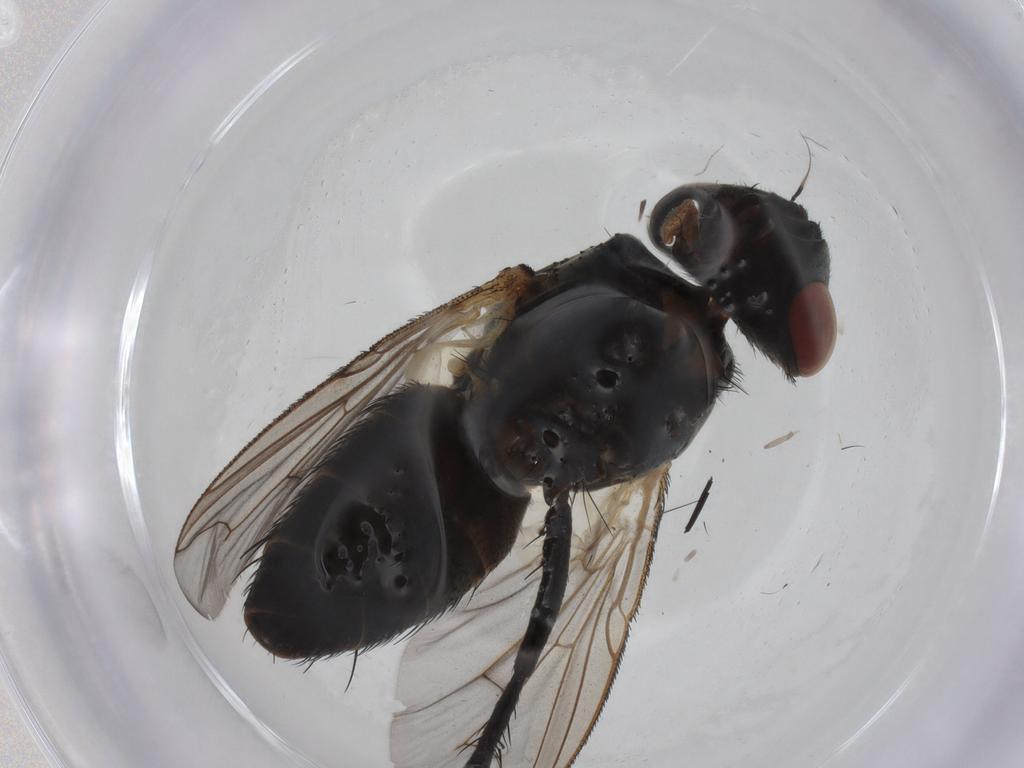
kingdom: Animalia
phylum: Arthropoda
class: Insecta
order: Diptera
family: Sarcophagidae
